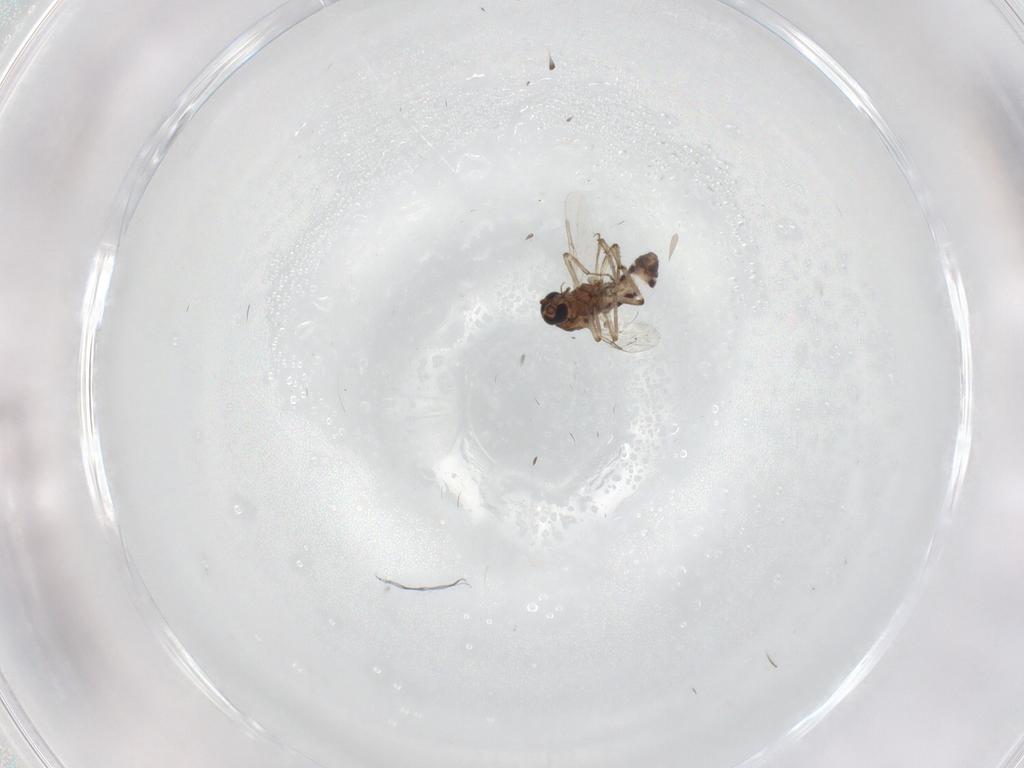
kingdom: Animalia
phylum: Arthropoda
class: Insecta
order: Diptera
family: Ceratopogonidae
